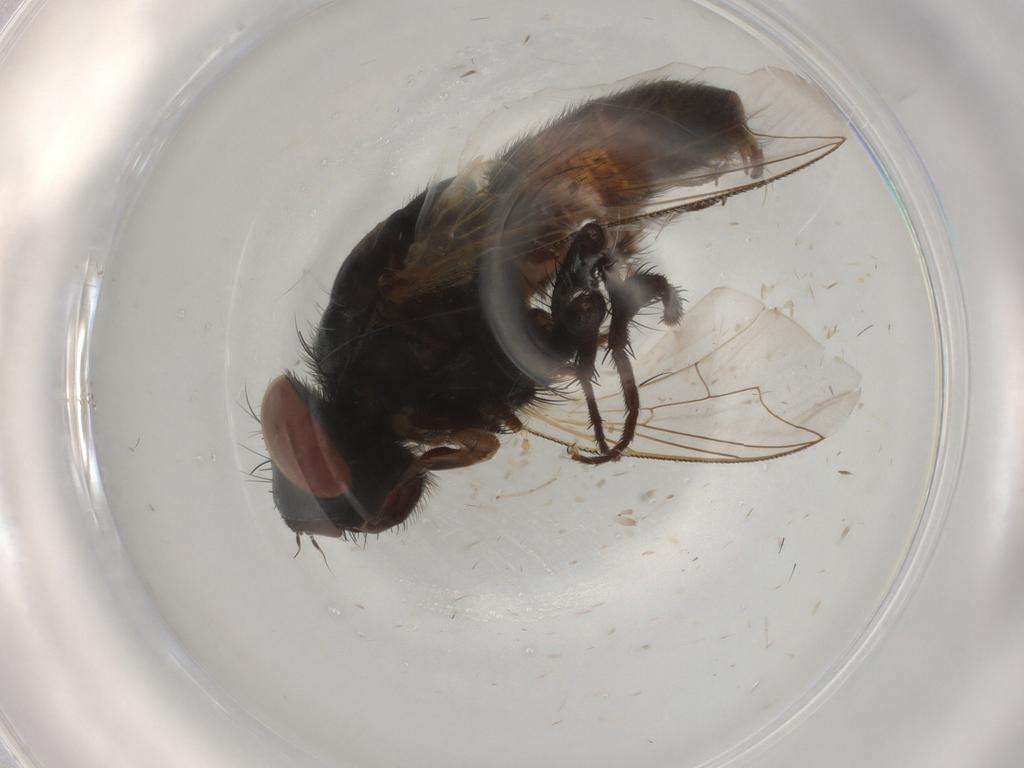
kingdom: Animalia
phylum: Arthropoda
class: Insecta
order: Diptera
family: Sarcophagidae
